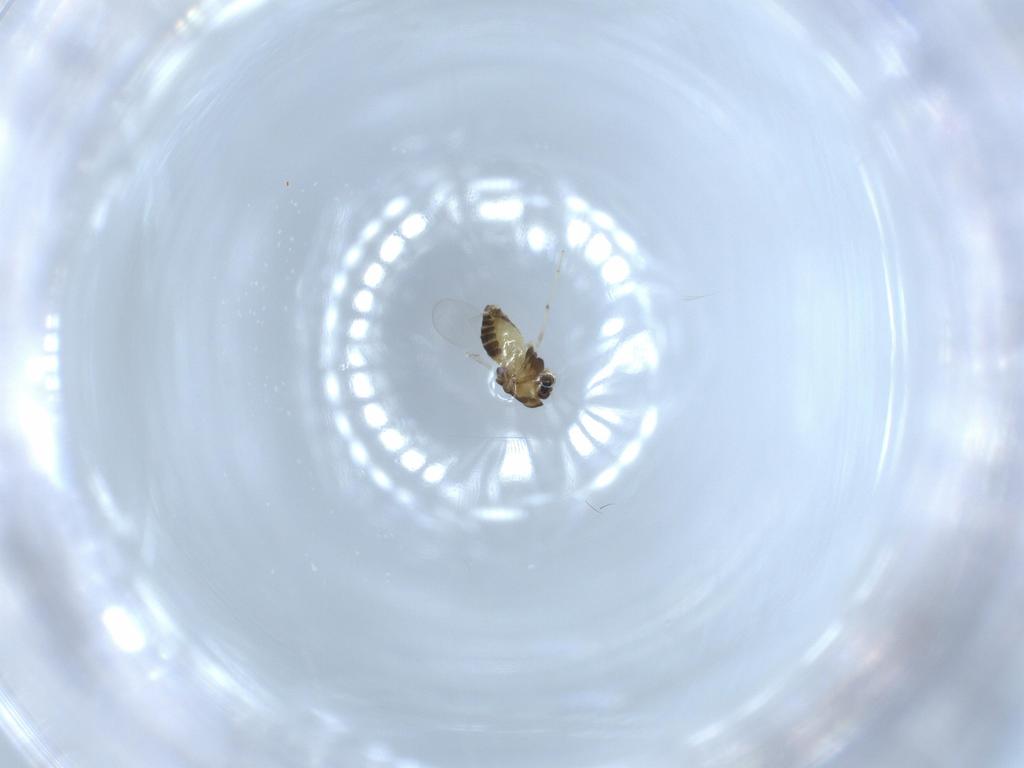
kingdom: Animalia
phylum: Arthropoda
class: Insecta
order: Diptera
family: Chironomidae
